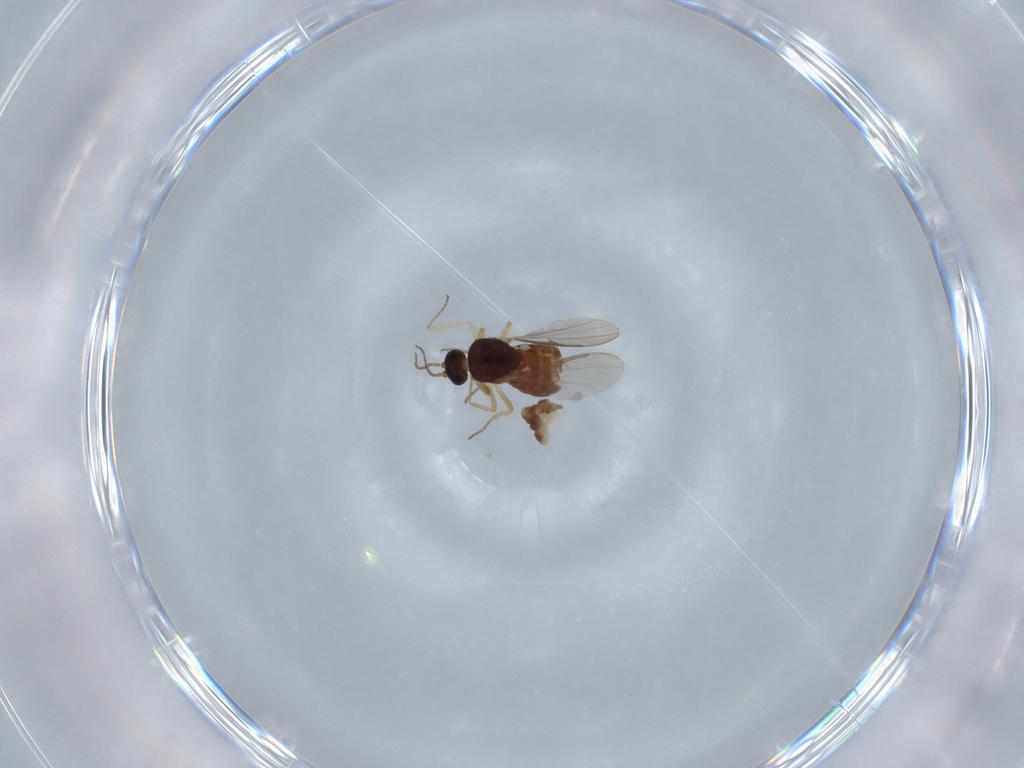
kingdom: Animalia
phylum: Arthropoda
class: Insecta
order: Diptera
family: Ceratopogonidae
